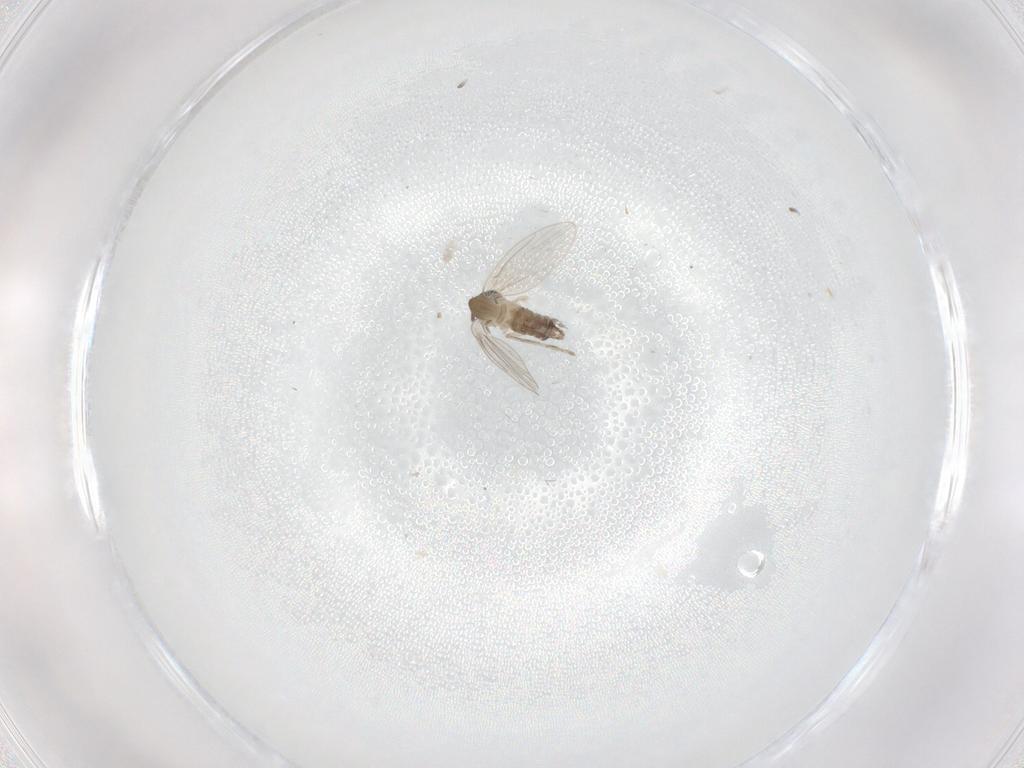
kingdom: Animalia
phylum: Arthropoda
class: Insecta
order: Diptera
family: Sciaridae
